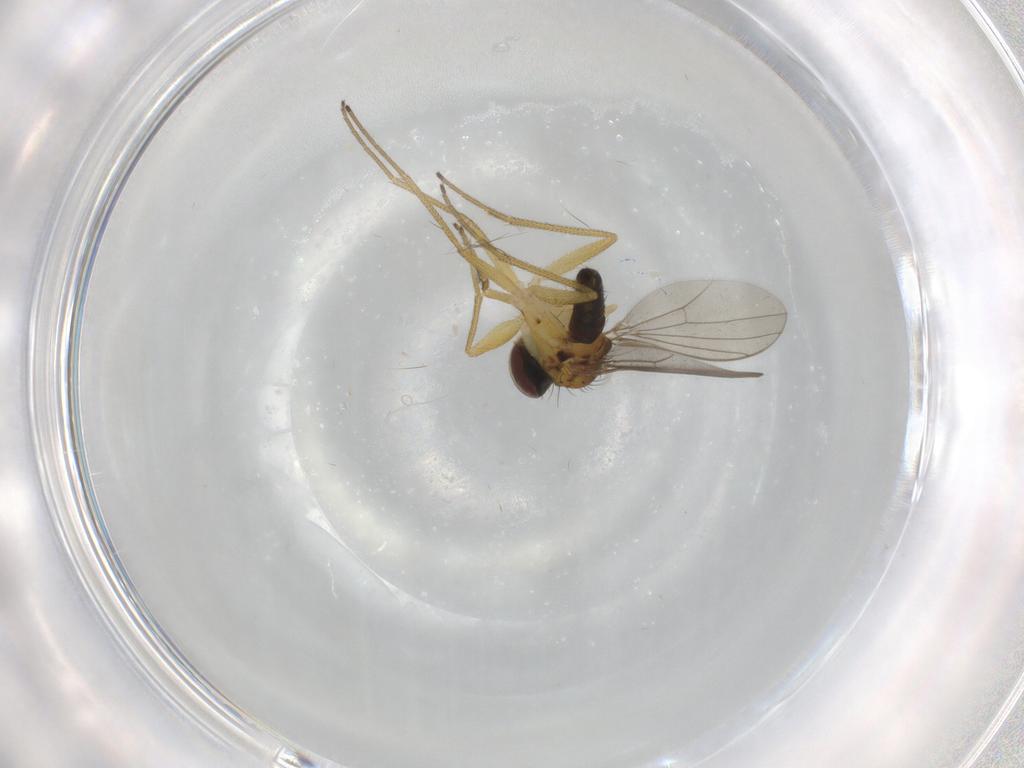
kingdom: Animalia
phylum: Arthropoda
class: Insecta
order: Diptera
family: Dolichopodidae
